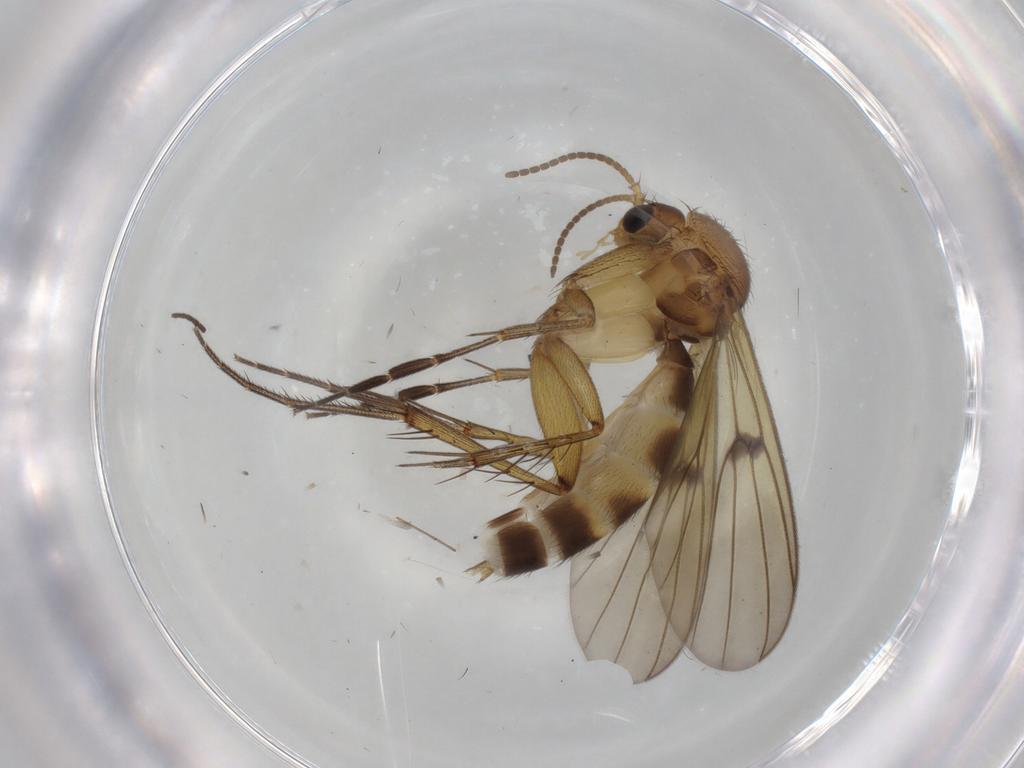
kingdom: Animalia
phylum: Arthropoda
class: Insecta
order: Diptera
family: Mycetophilidae
